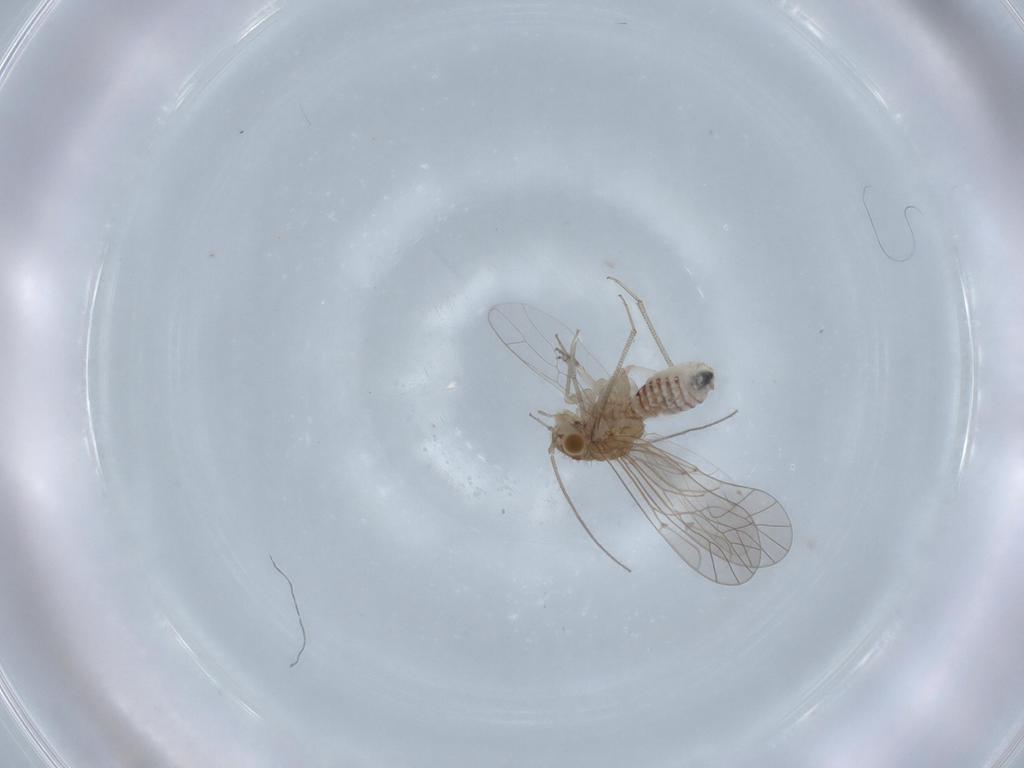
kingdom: Animalia
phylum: Arthropoda
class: Insecta
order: Psocodea
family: Lachesillidae
